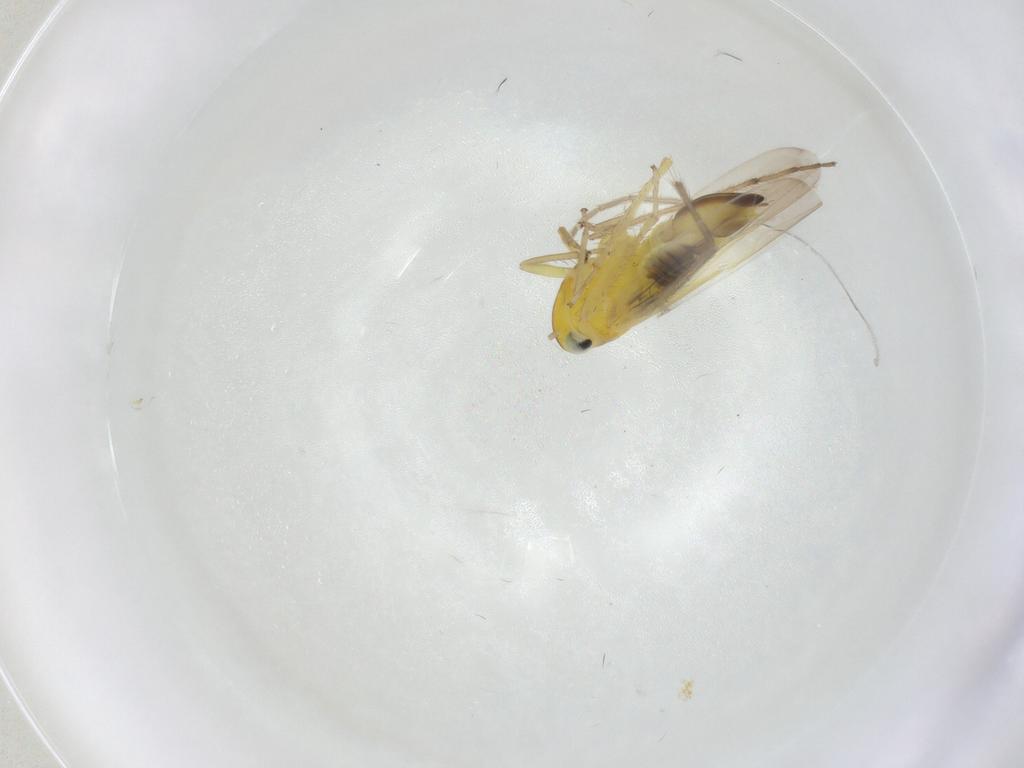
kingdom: Animalia
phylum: Arthropoda
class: Insecta
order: Hemiptera
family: Cicadellidae
